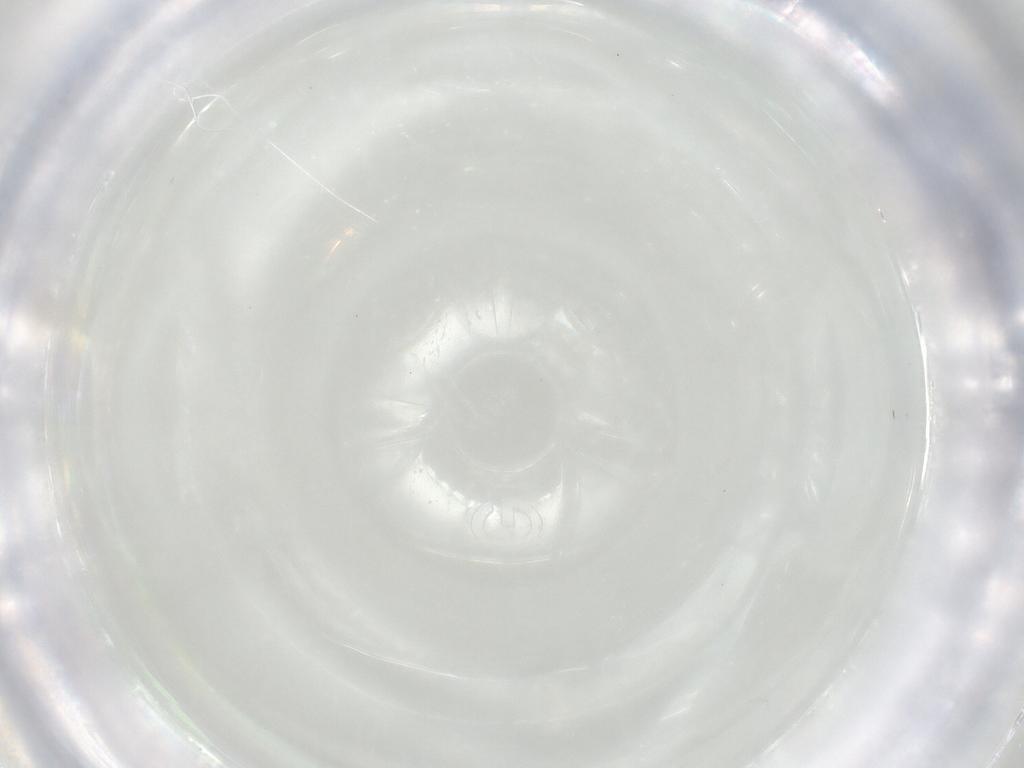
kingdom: Animalia
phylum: Arthropoda
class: Insecta
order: Diptera
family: Cecidomyiidae
